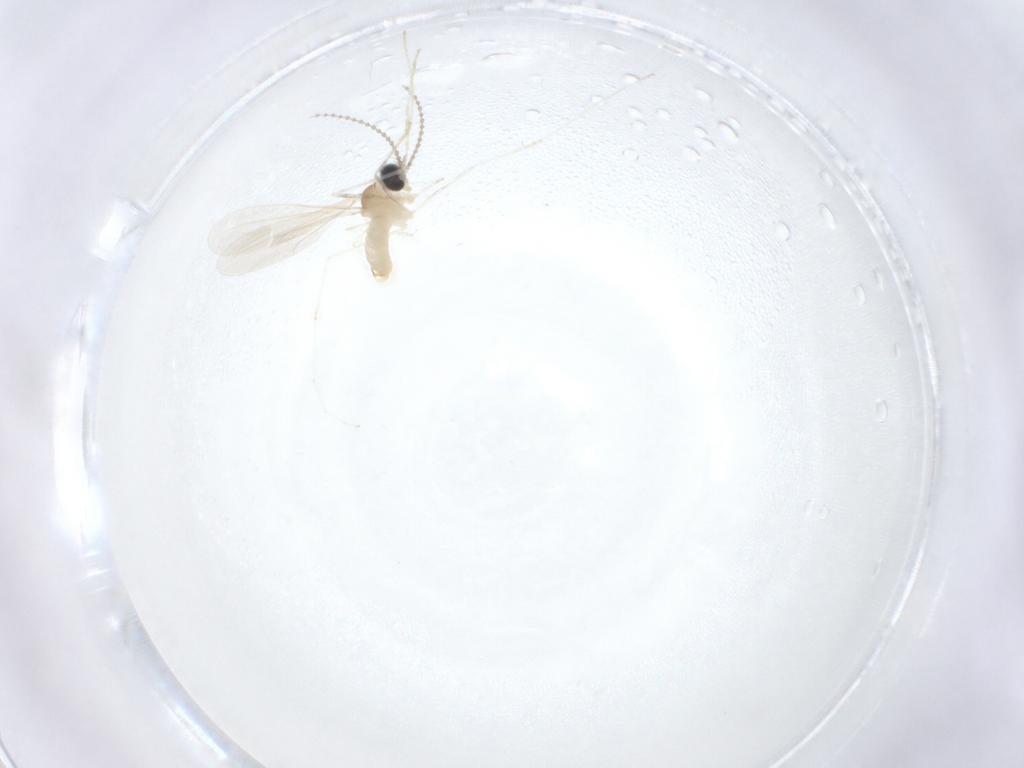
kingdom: Animalia
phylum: Arthropoda
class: Insecta
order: Diptera
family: Cecidomyiidae
